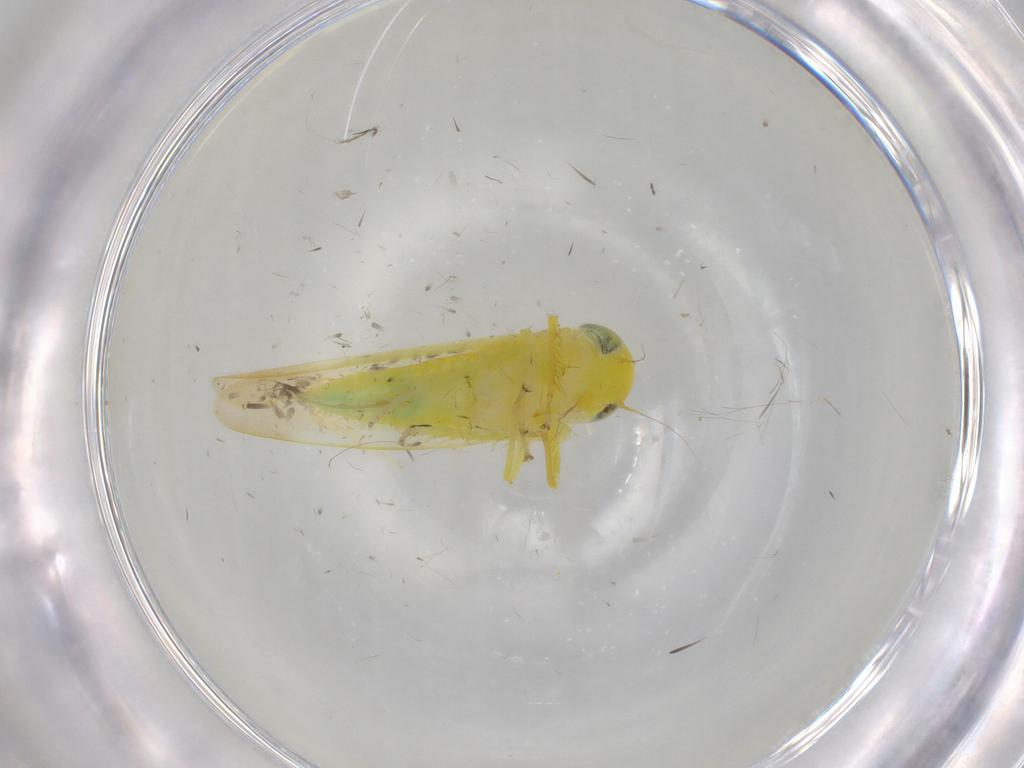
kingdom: Animalia
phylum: Arthropoda
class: Insecta
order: Hemiptera
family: Cicadellidae
